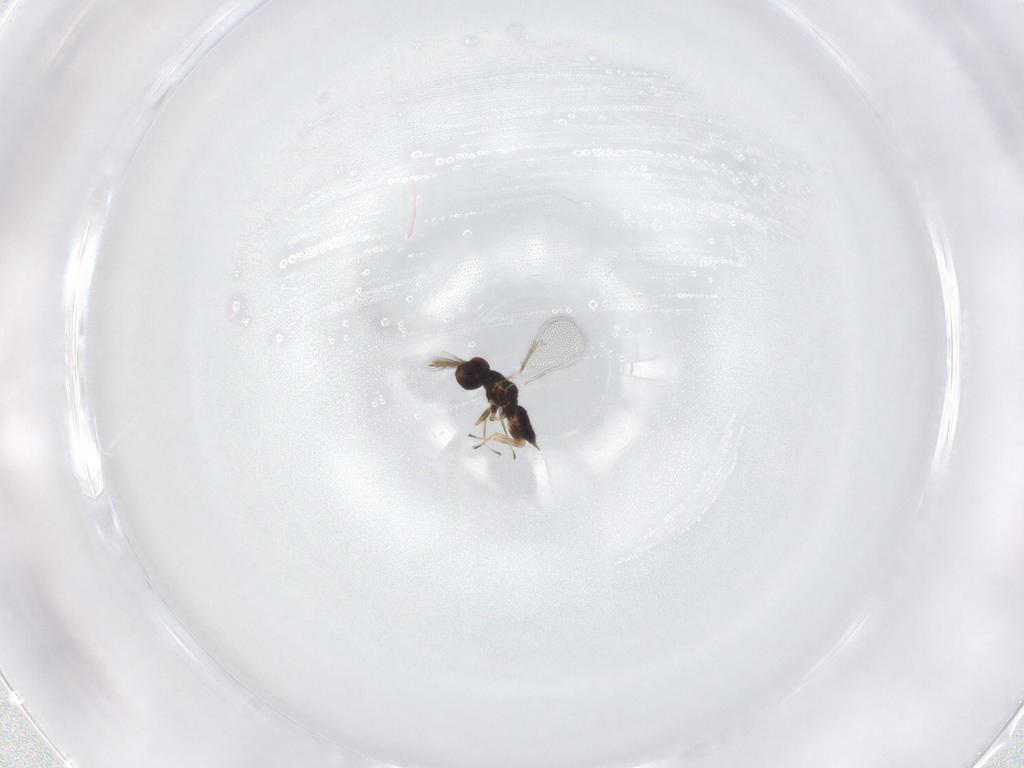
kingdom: Animalia
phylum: Arthropoda
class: Insecta
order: Hymenoptera
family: Eulophidae
